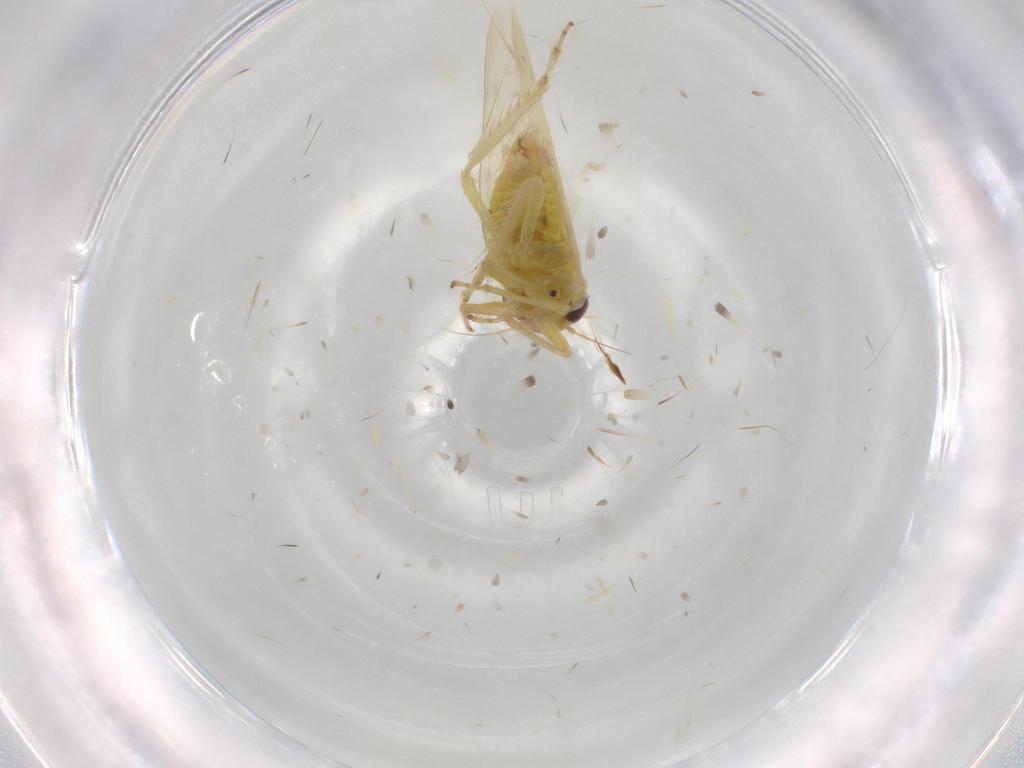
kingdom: Animalia
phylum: Arthropoda
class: Insecta
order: Hemiptera
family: Cicadellidae
